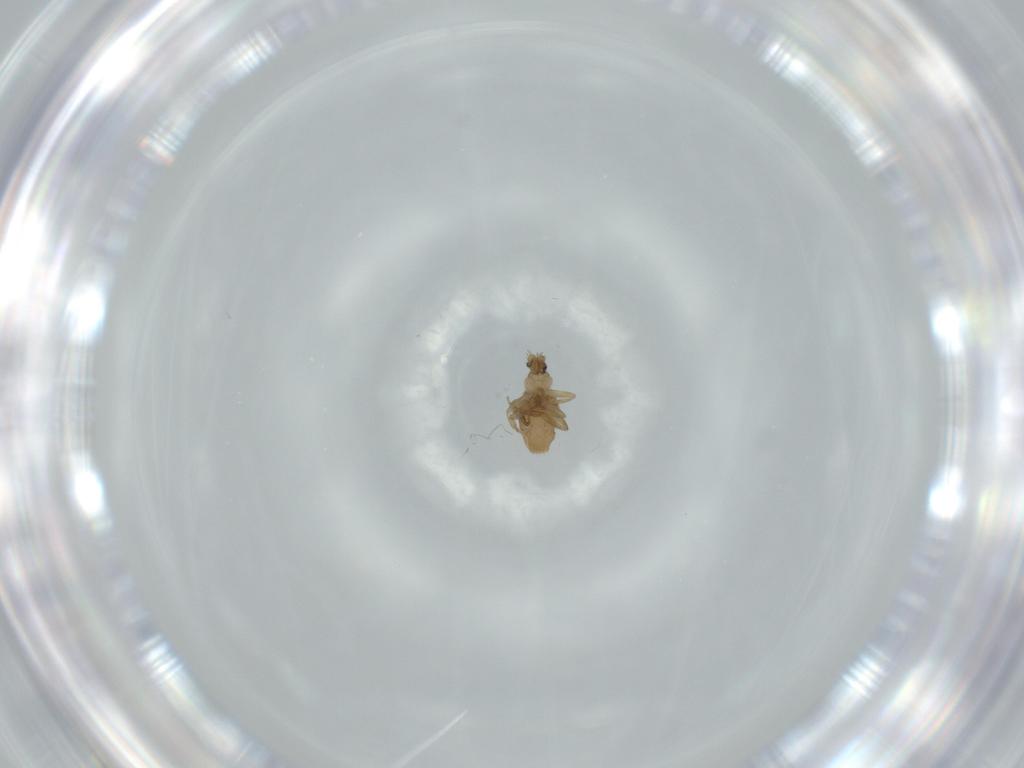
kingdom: Animalia
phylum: Arthropoda
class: Insecta
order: Diptera
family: Phoridae
